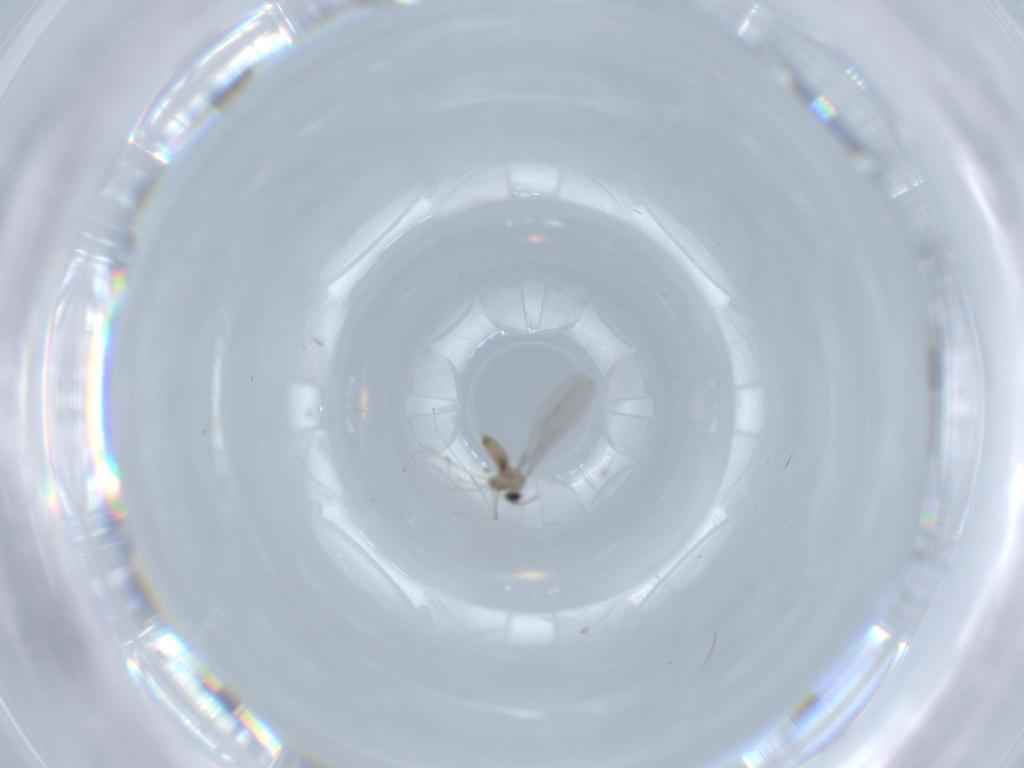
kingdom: Animalia
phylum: Arthropoda
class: Insecta
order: Diptera
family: Cecidomyiidae
